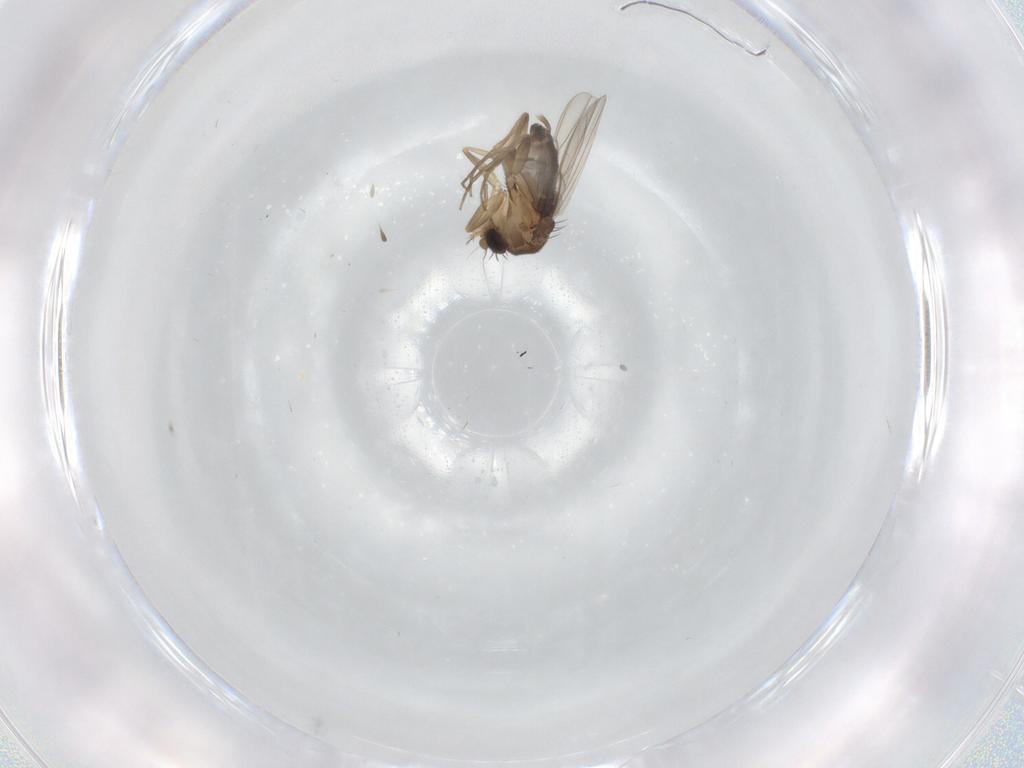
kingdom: Animalia
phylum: Arthropoda
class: Insecta
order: Diptera
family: Phoridae
